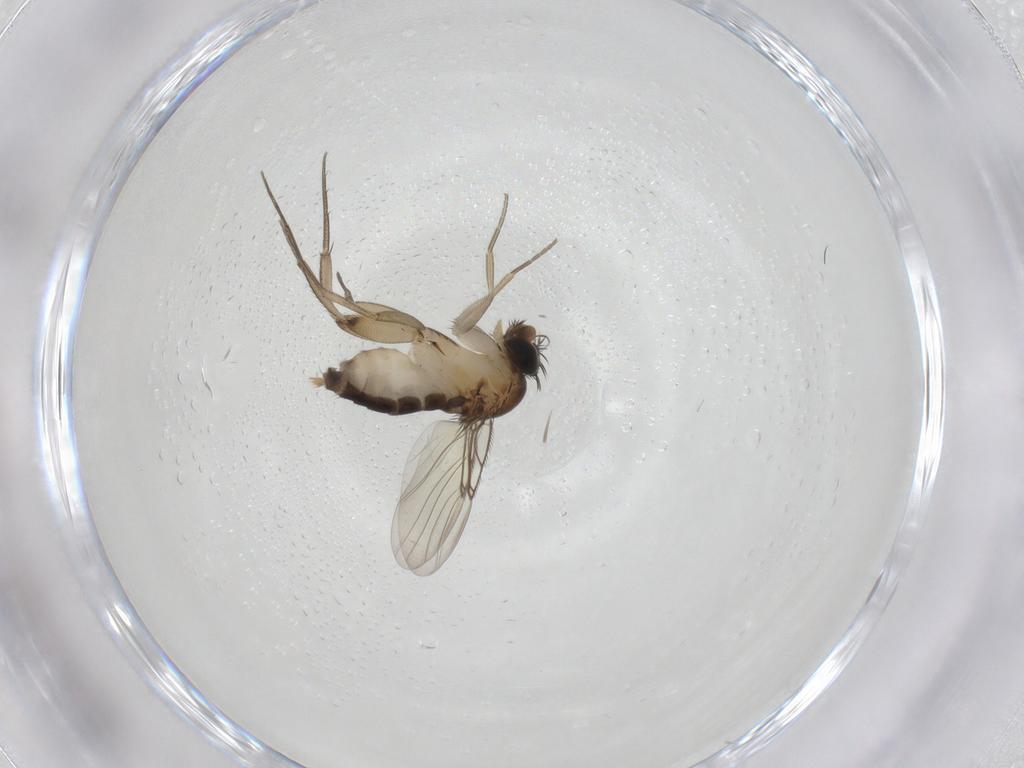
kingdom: Animalia
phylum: Arthropoda
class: Insecta
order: Diptera
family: Phoridae
